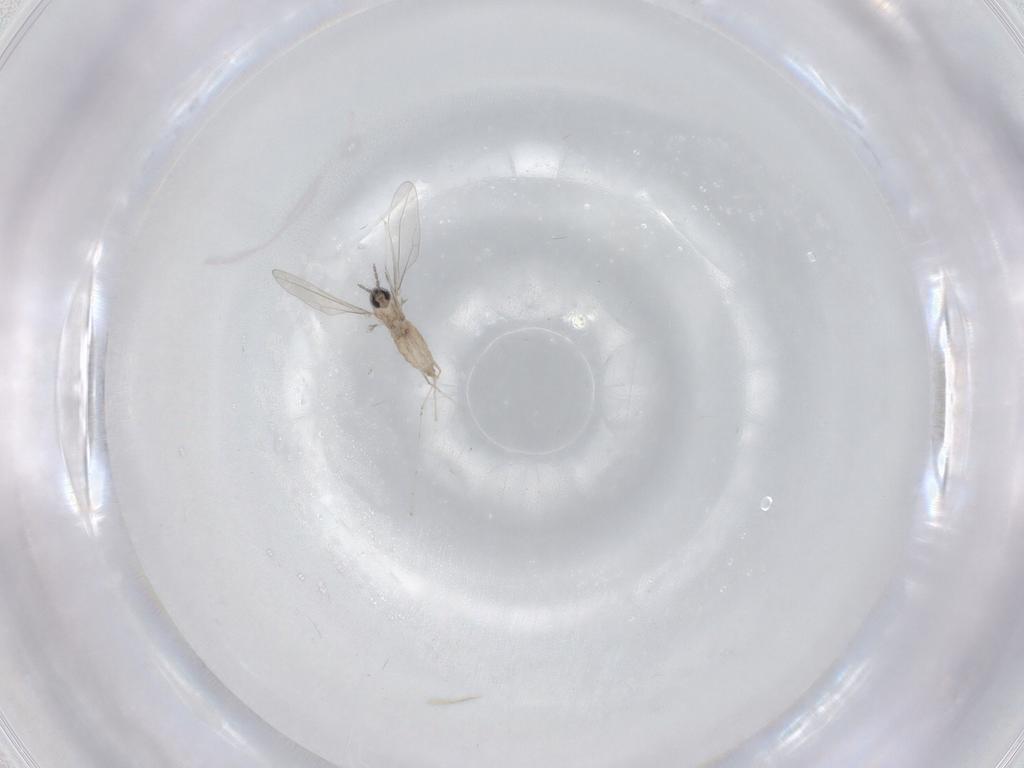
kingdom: Animalia
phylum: Arthropoda
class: Insecta
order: Diptera
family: Cecidomyiidae
